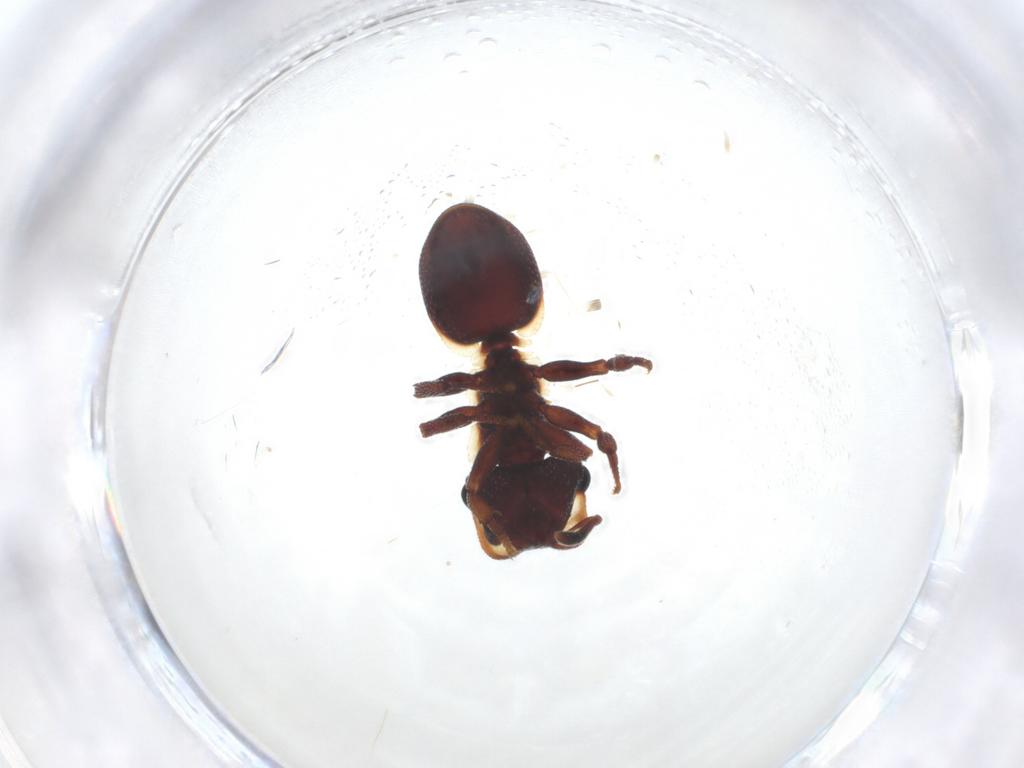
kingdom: Animalia
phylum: Arthropoda
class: Insecta
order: Hymenoptera
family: Formicidae
